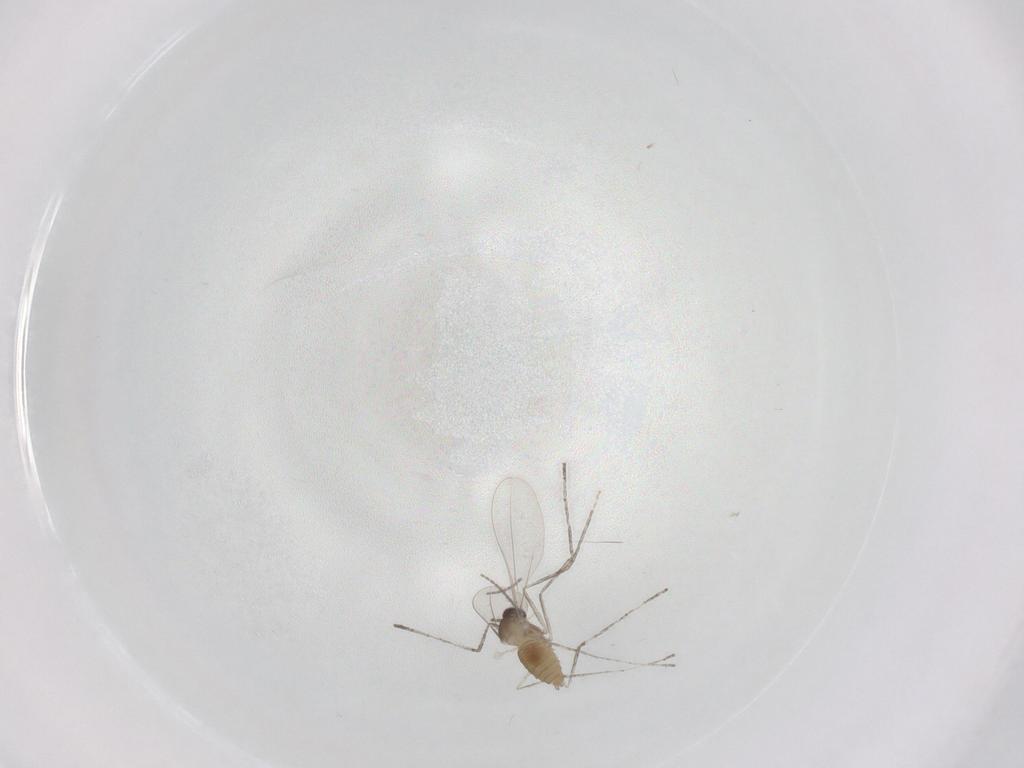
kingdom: Animalia
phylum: Arthropoda
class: Insecta
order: Diptera
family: Cecidomyiidae
